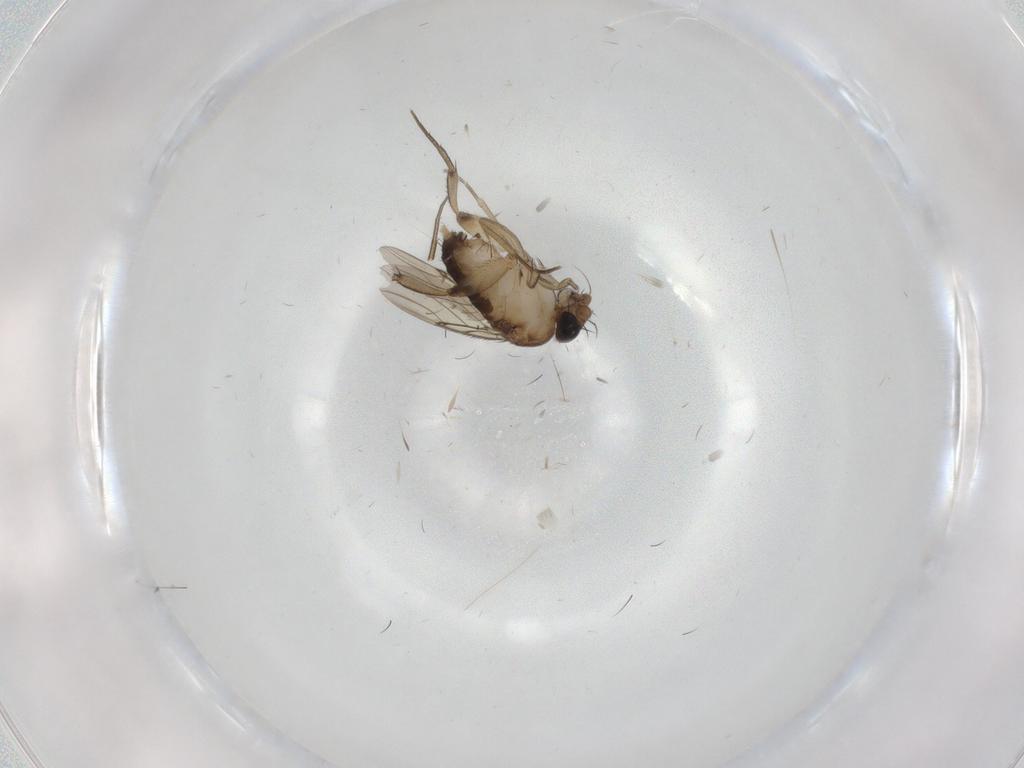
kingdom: Animalia
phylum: Arthropoda
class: Insecta
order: Diptera
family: Phoridae
